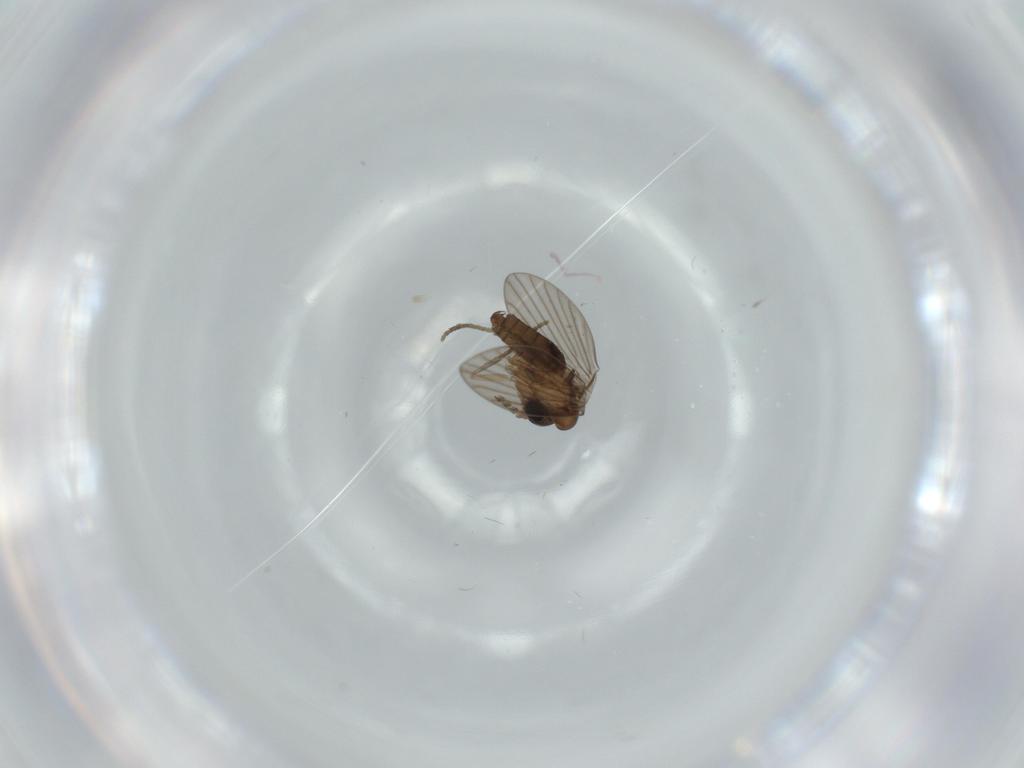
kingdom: Animalia
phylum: Arthropoda
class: Insecta
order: Diptera
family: Psychodidae
